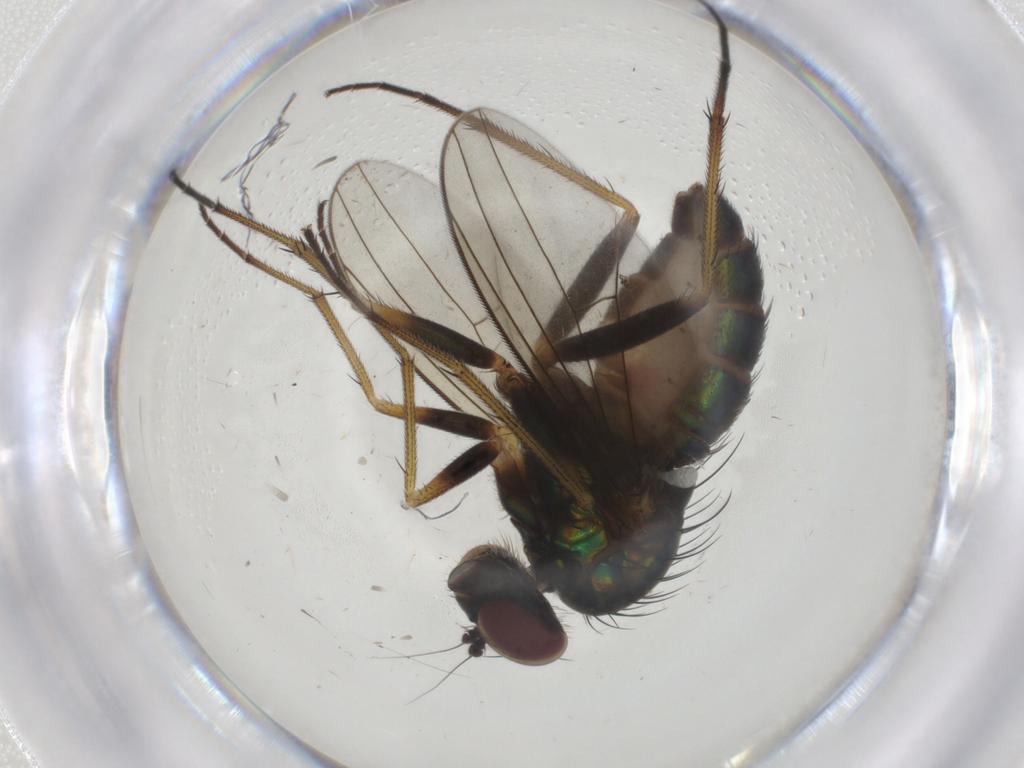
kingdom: Animalia
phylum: Arthropoda
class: Insecta
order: Diptera
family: Dolichopodidae
